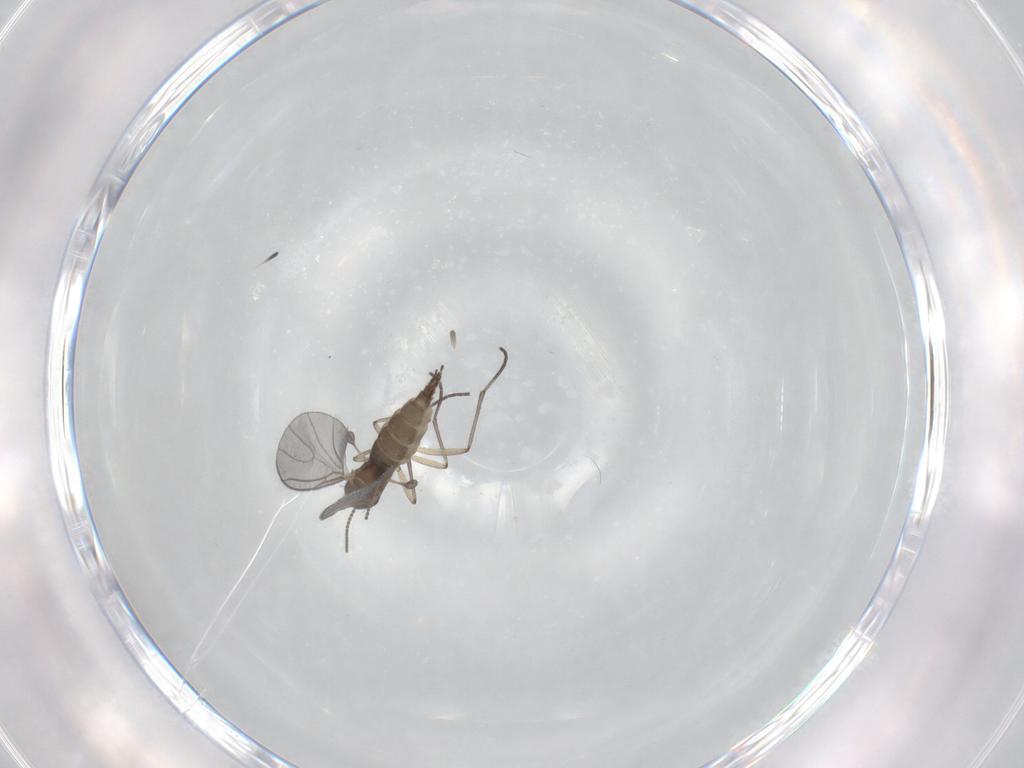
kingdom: Animalia
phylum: Arthropoda
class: Insecta
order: Diptera
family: Sciaridae
